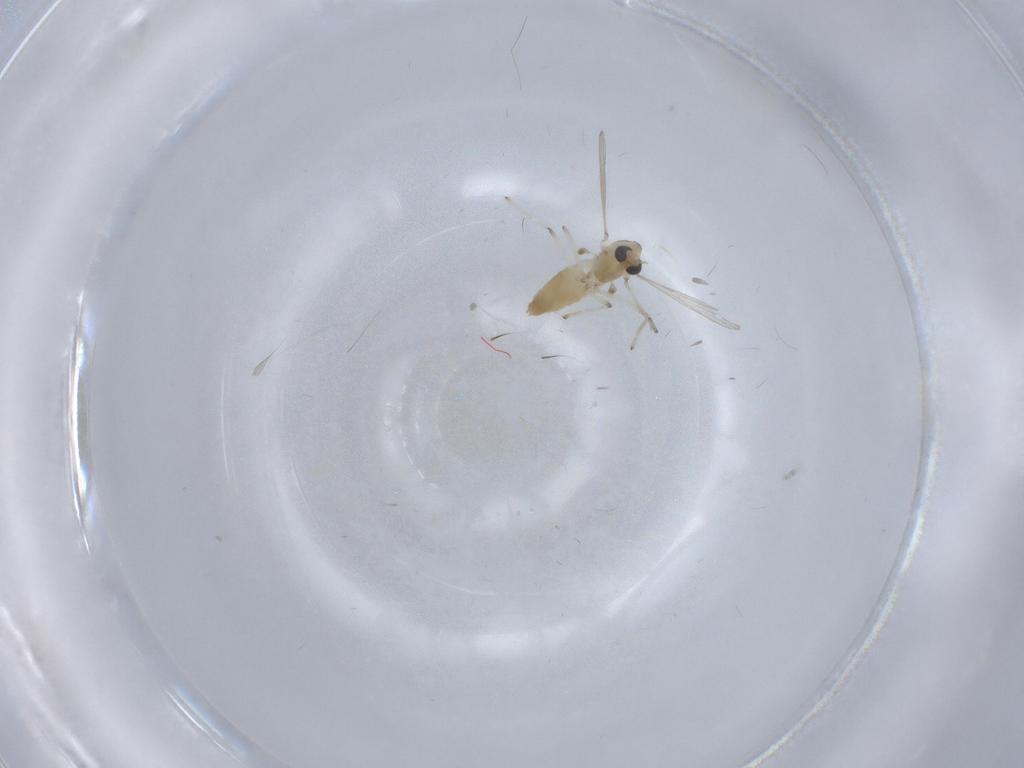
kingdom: Animalia
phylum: Arthropoda
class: Insecta
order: Diptera
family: Chironomidae
